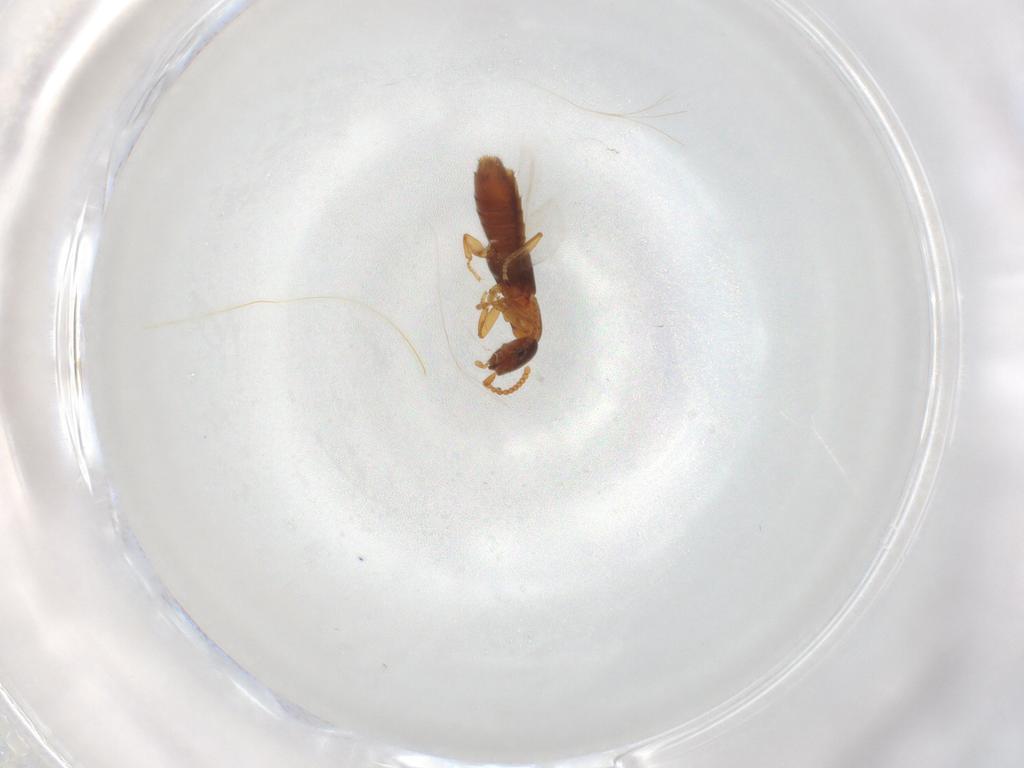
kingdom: Animalia
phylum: Arthropoda
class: Insecta
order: Coleoptera
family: Staphylinidae
